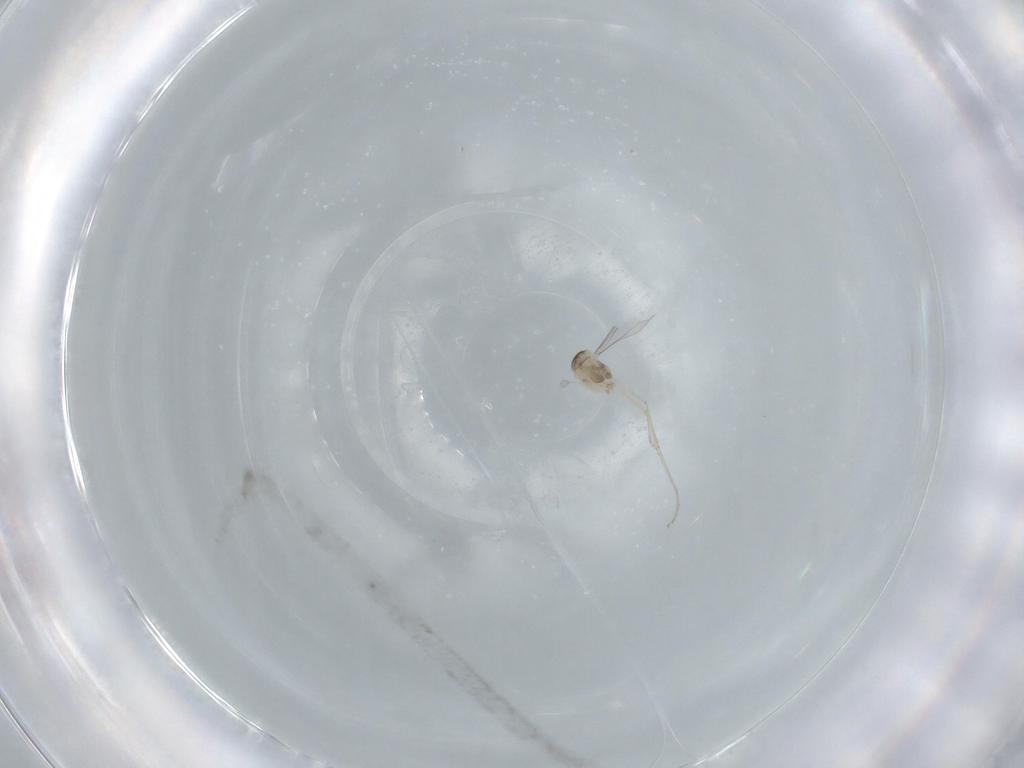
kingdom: Animalia
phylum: Arthropoda
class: Insecta
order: Diptera
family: Cecidomyiidae
